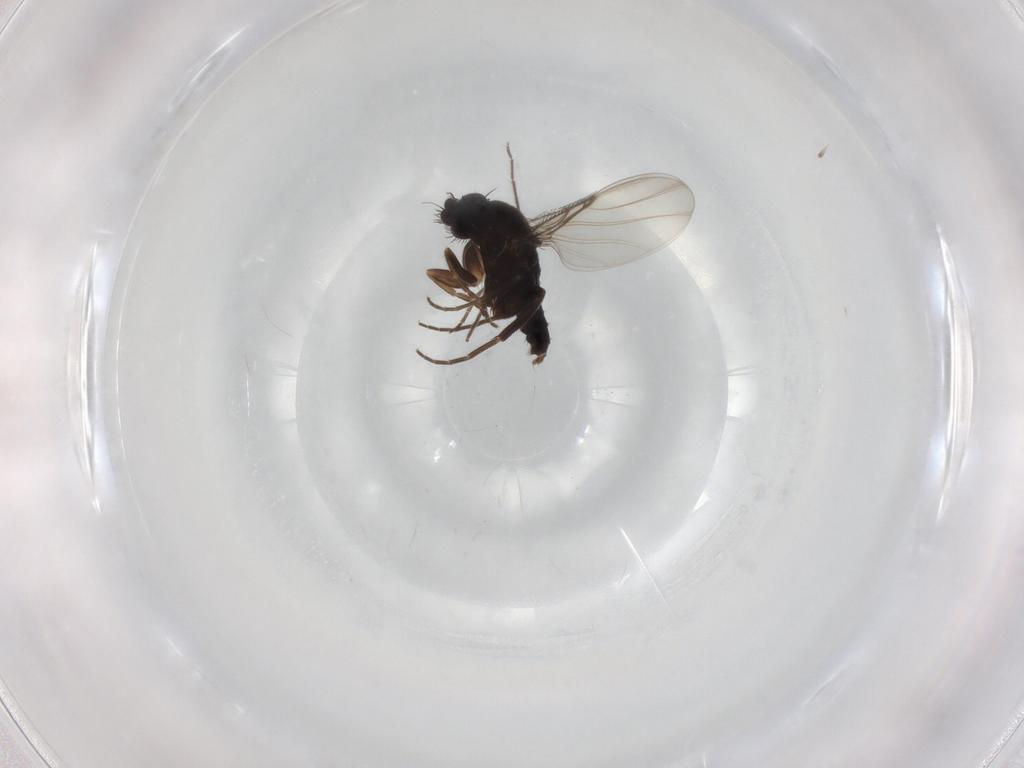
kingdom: Animalia
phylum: Arthropoda
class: Insecta
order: Diptera
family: Phoridae
